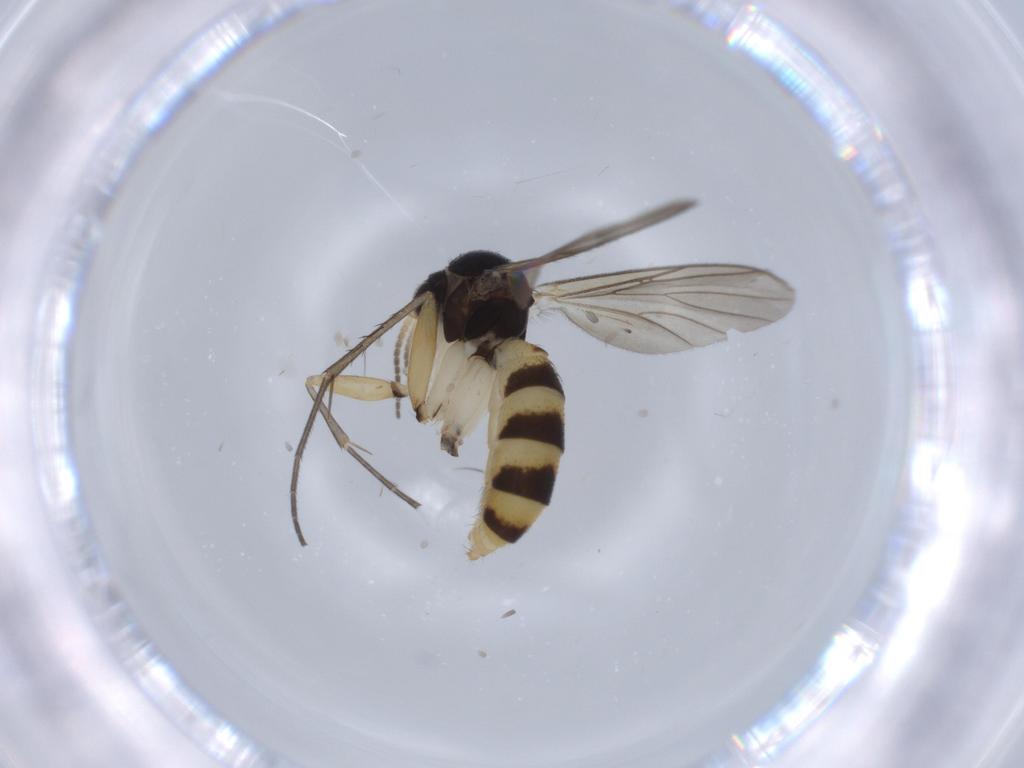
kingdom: Animalia
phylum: Arthropoda
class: Insecta
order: Diptera
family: Mycetophilidae
